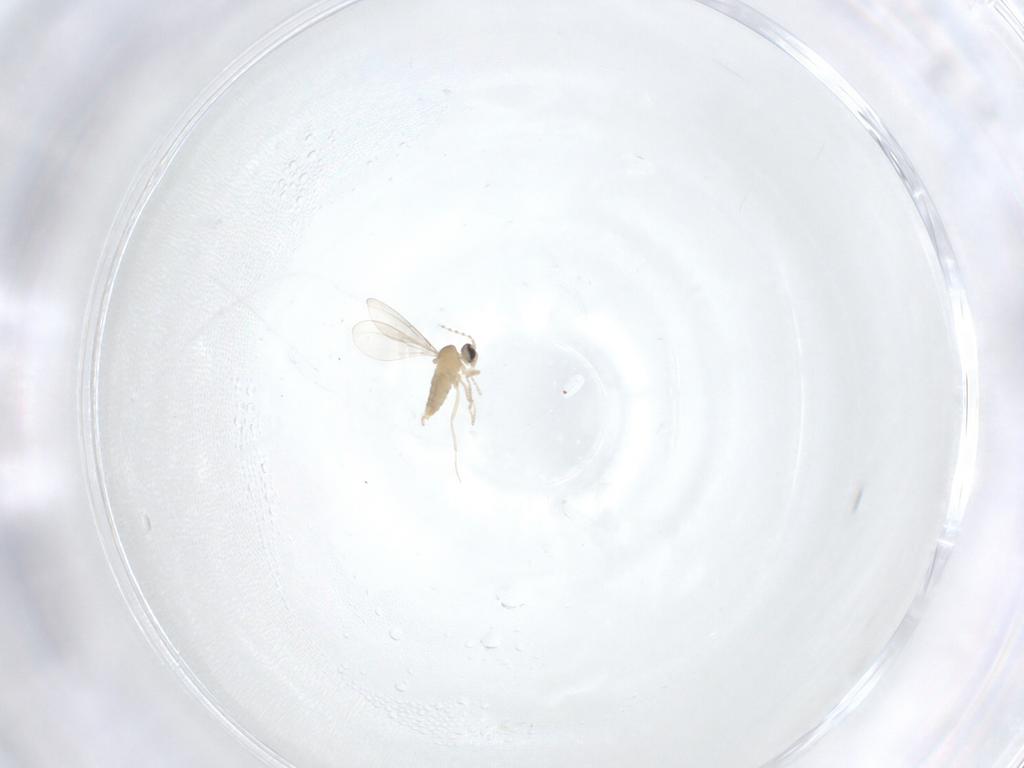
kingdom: Animalia
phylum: Arthropoda
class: Insecta
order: Diptera
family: Cecidomyiidae
